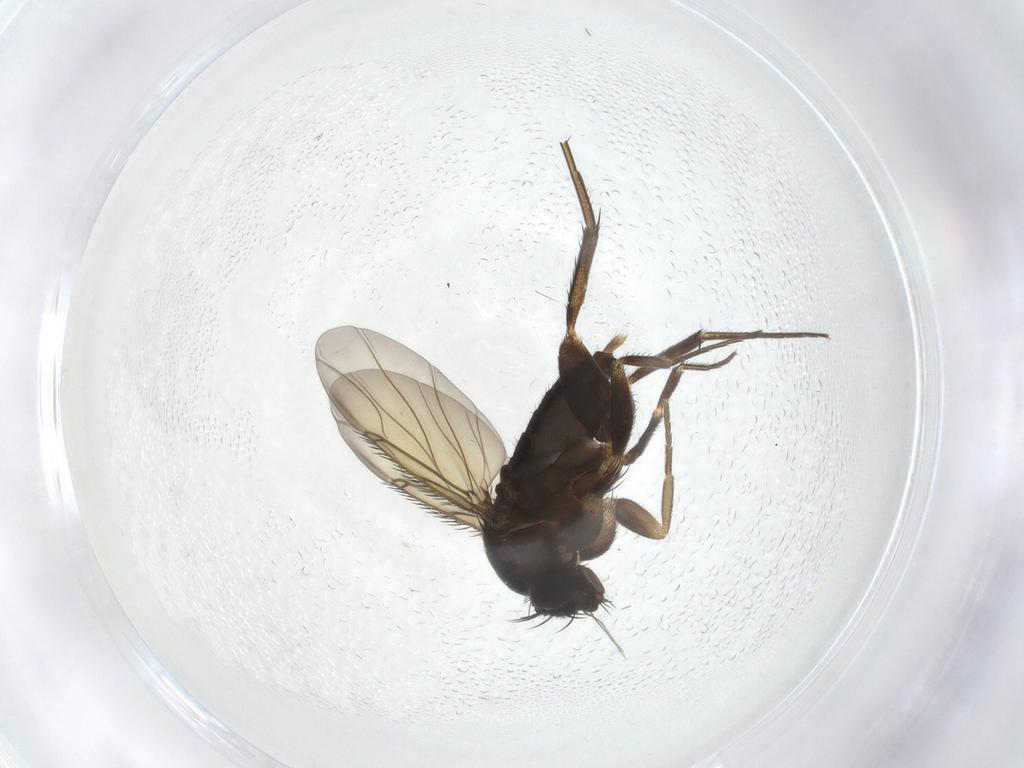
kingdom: Animalia
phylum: Arthropoda
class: Insecta
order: Diptera
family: Phoridae
